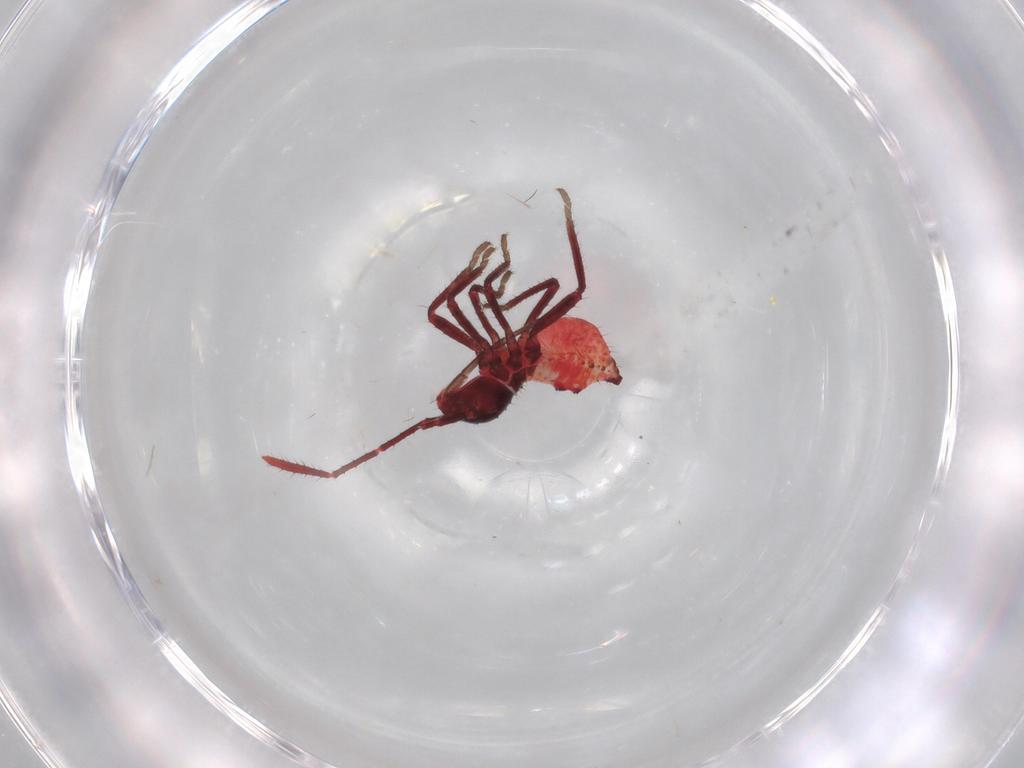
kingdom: Animalia
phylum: Arthropoda
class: Insecta
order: Hemiptera
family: Coreidae
